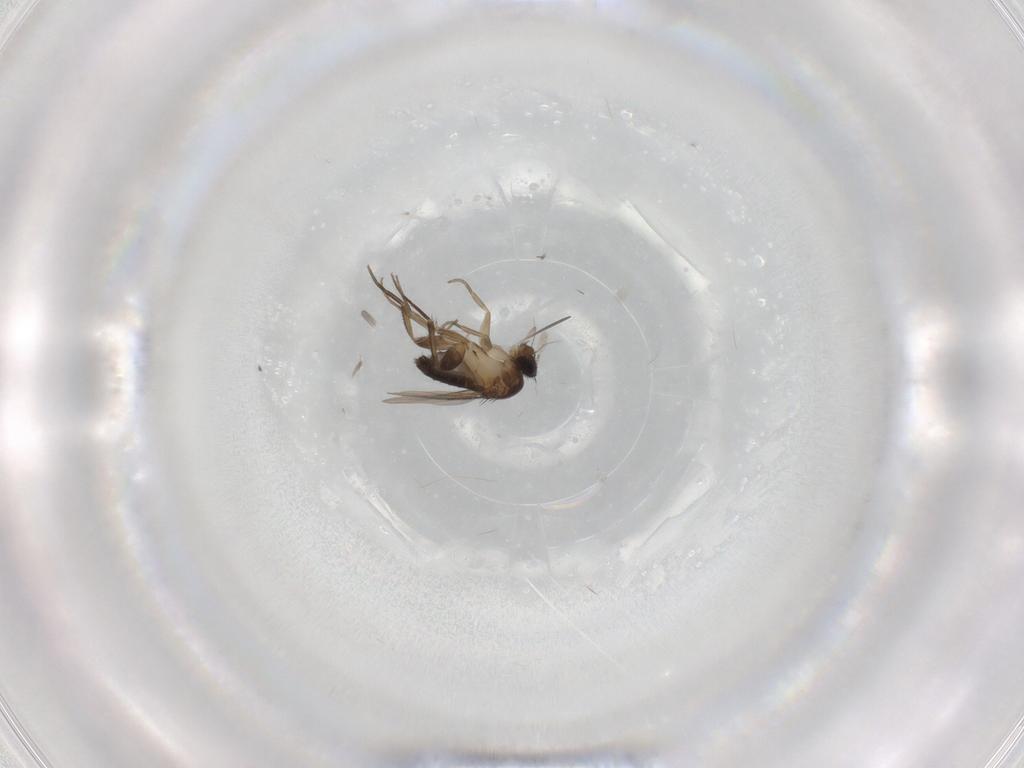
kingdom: Animalia
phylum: Arthropoda
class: Insecta
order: Diptera
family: Phoridae
